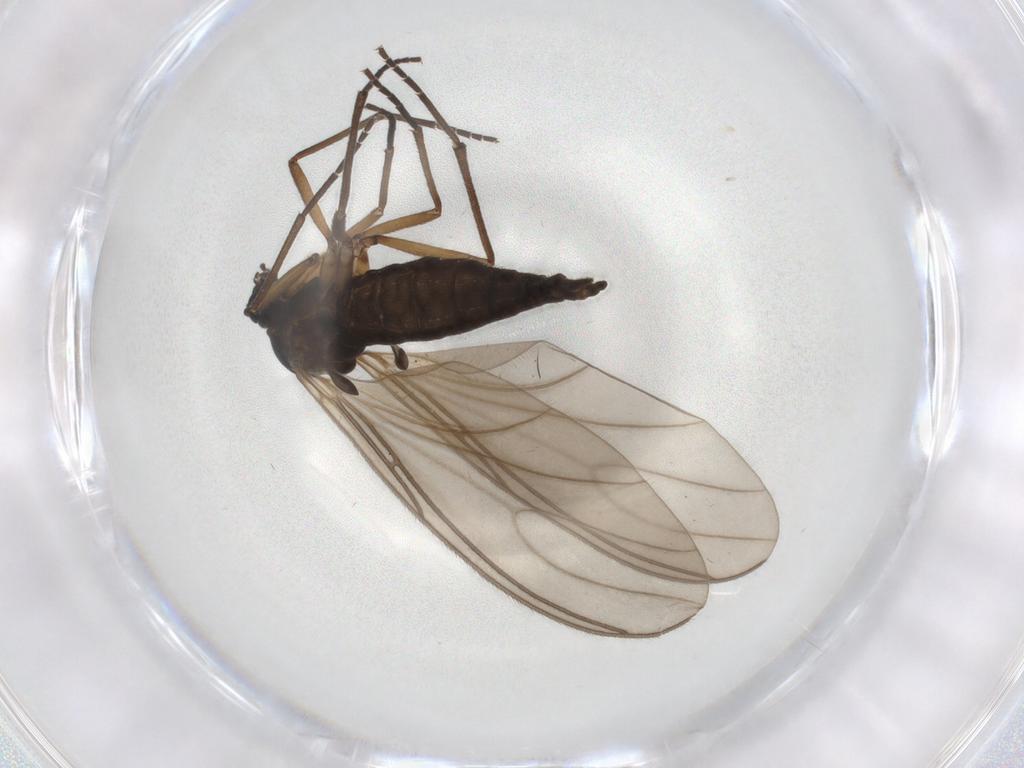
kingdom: Animalia
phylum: Arthropoda
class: Insecta
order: Diptera
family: Sciaridae
